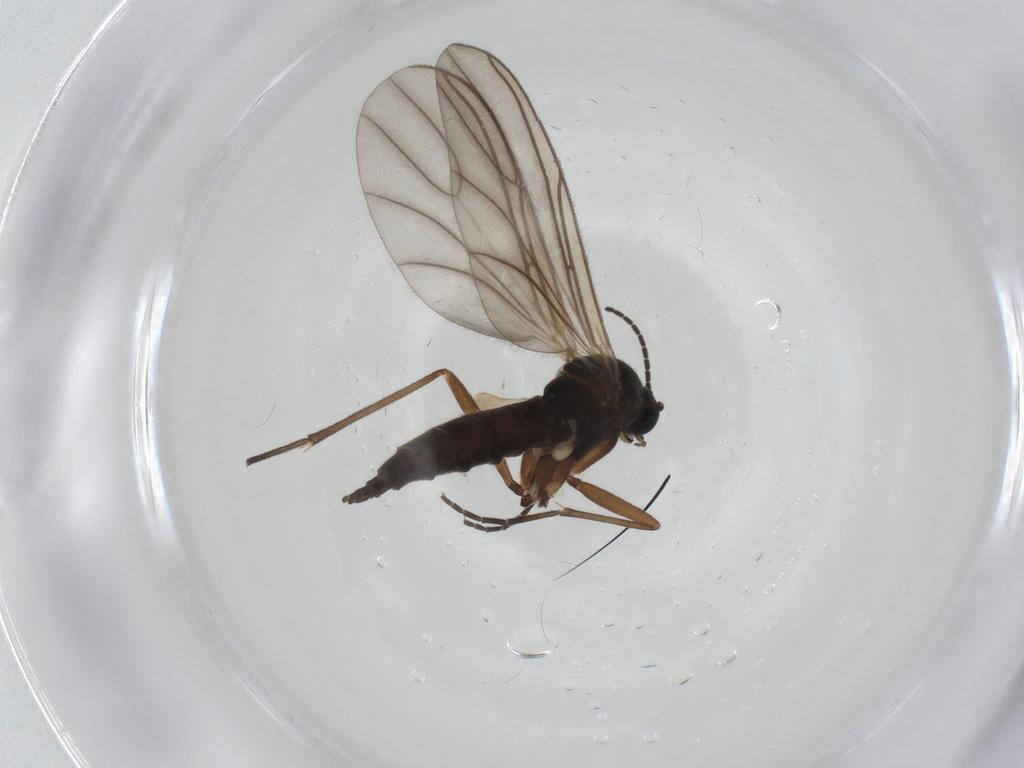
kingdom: Animalia
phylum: Arthropoda
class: Insecta
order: Diptera
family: Sciaridae
